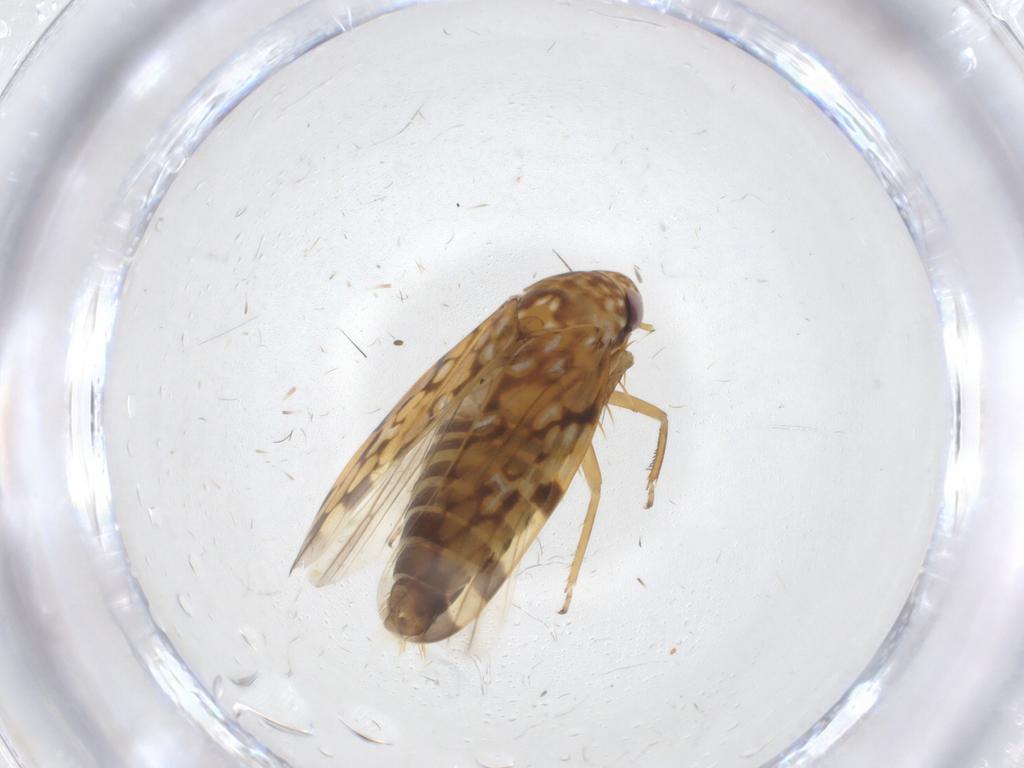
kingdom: Animalia
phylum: Arthropoda
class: Insecta
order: Hemiptera
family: Cicadellidae
